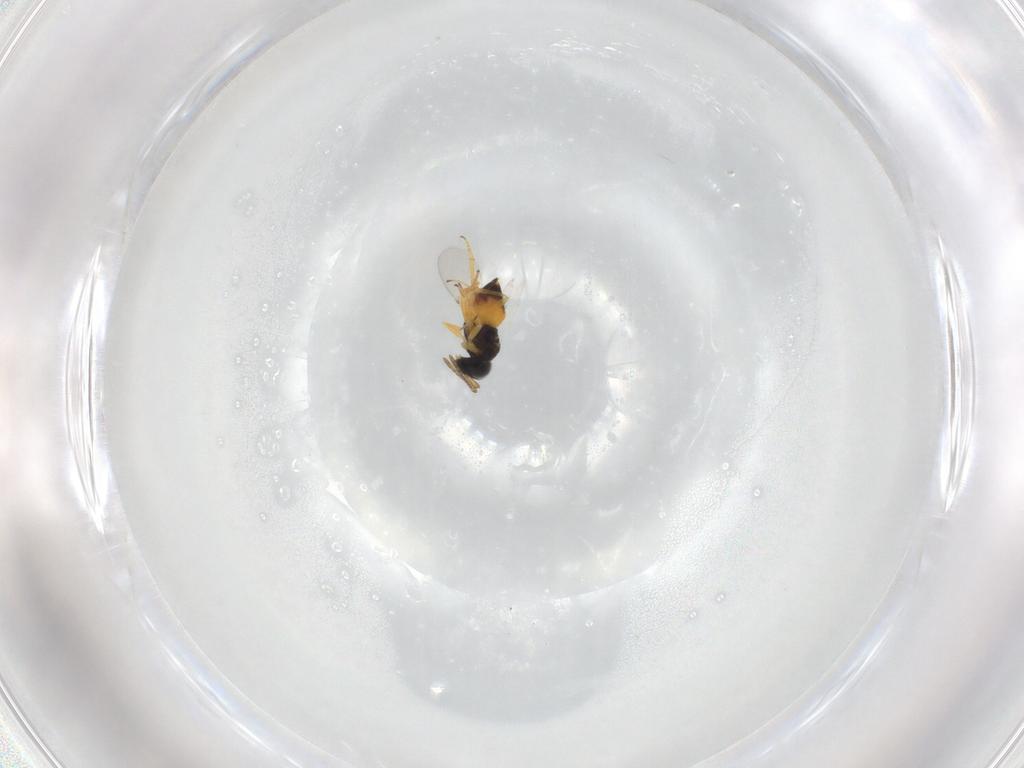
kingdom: Animalia
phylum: Arthropoda
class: Insecta
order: Hymenoptera
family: Encyrtidae
